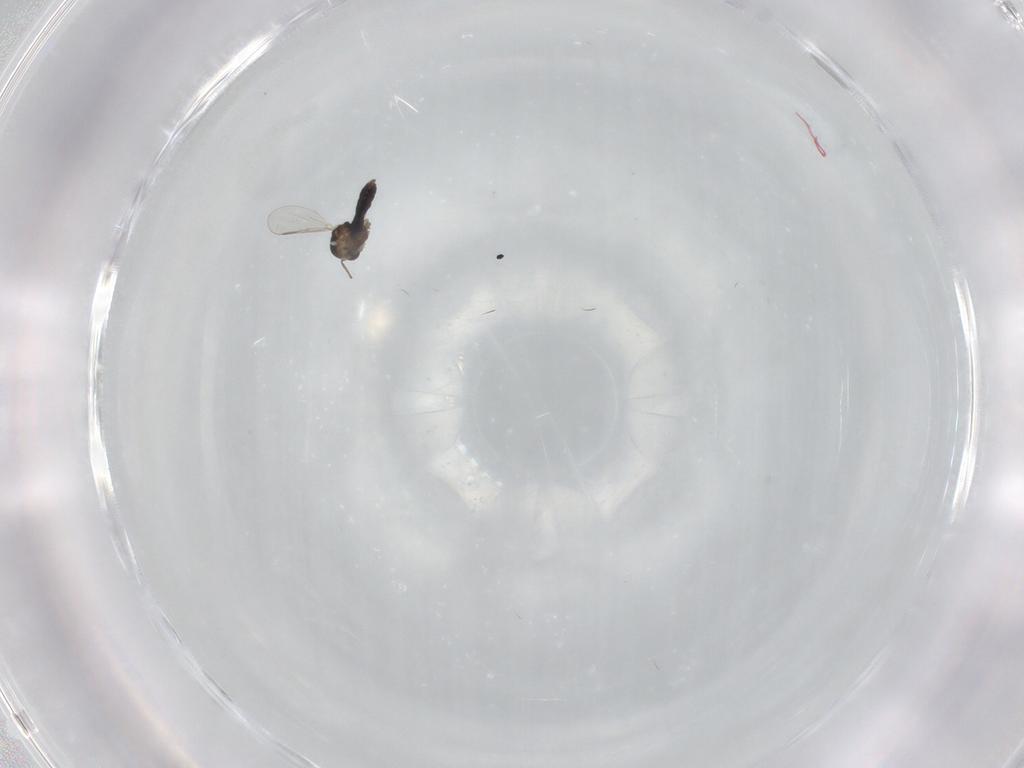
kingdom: Animalia
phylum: Arthropoda
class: Insecta
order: Diptera
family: Chironomidae
